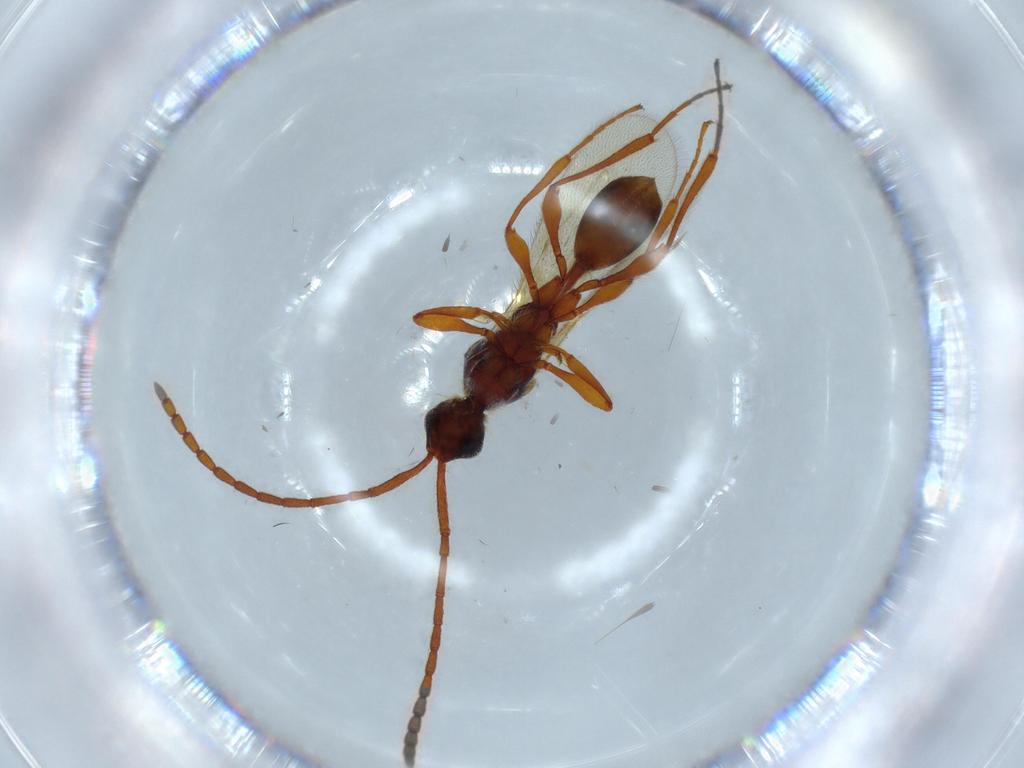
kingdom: Animalia
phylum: Arthropoda
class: Insecta
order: Hymenoptera
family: Diapriidae
